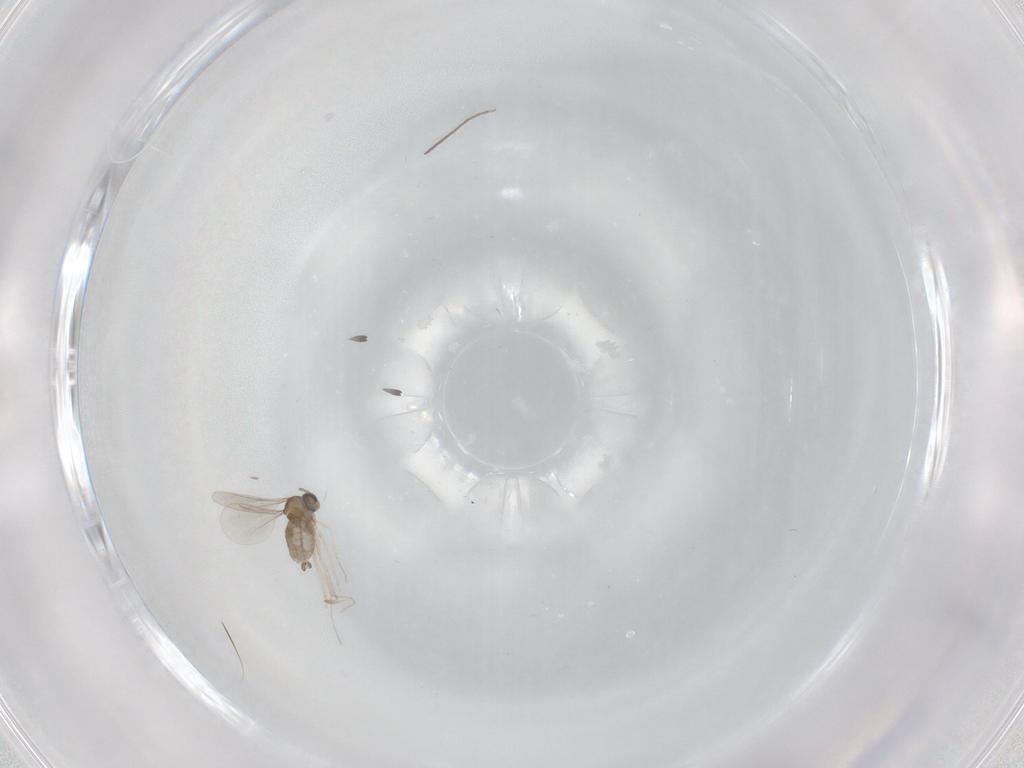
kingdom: Animalia
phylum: Arthropoda
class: Insecta
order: Diptera
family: Chironomidae
